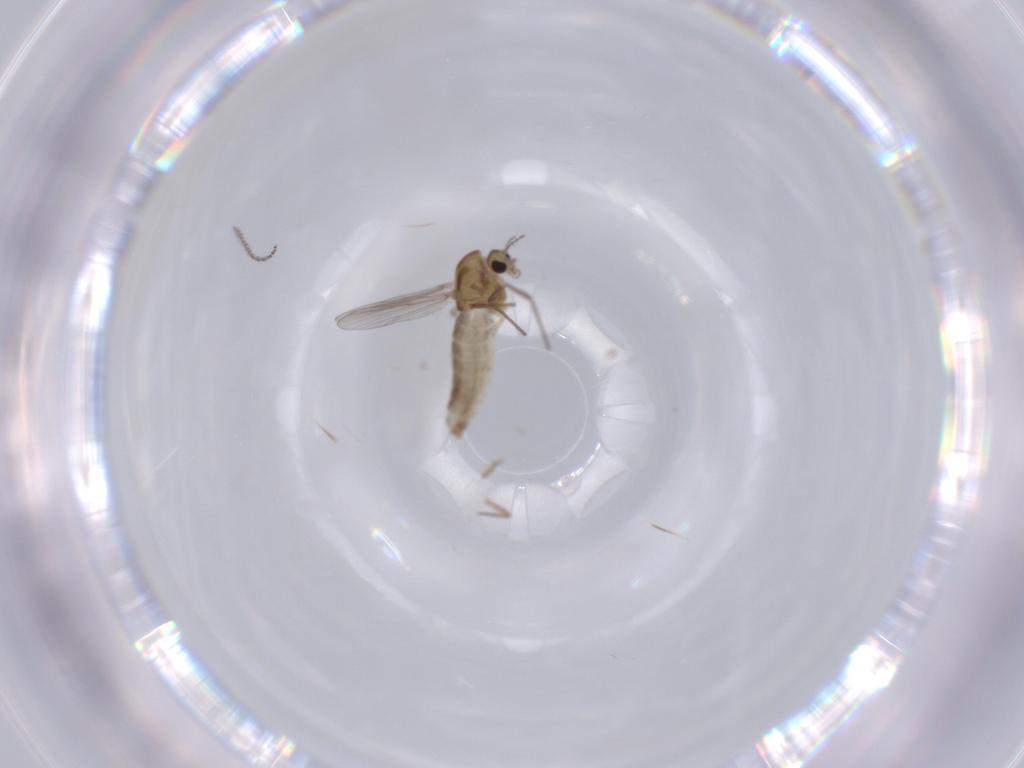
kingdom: Animalia
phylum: Arthropoda
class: Insecta
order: Diptera
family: Chironomidae
